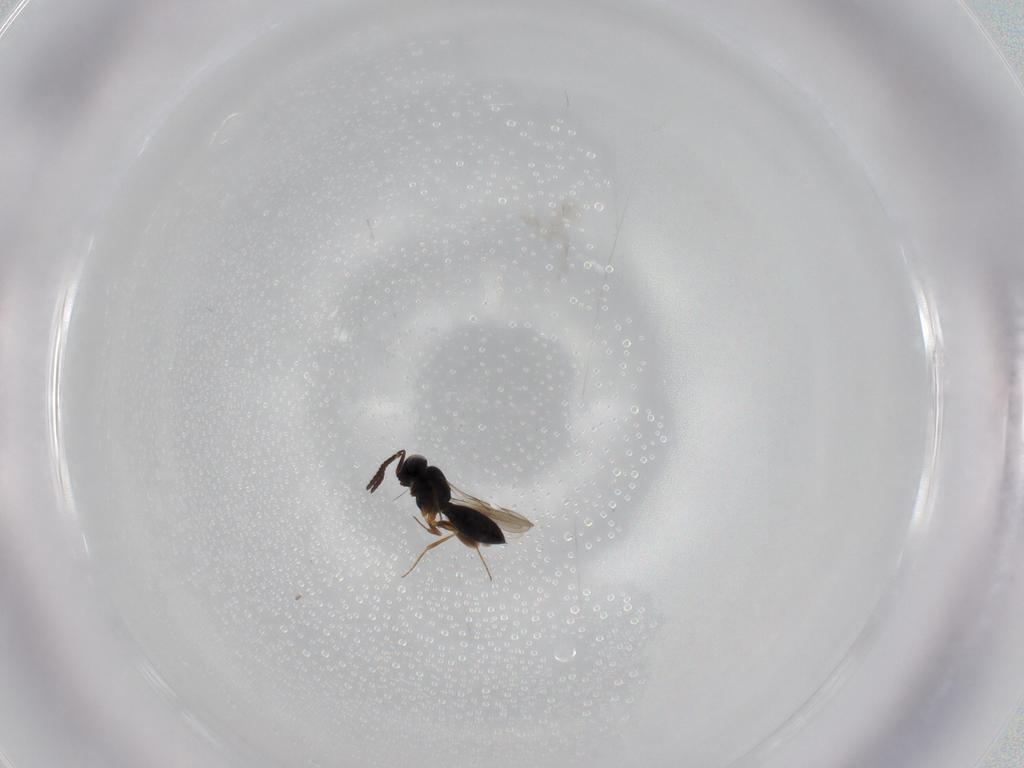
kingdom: Animalia
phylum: Arthropoda
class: Insecta
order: Hymenoptera
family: Scelionidae
